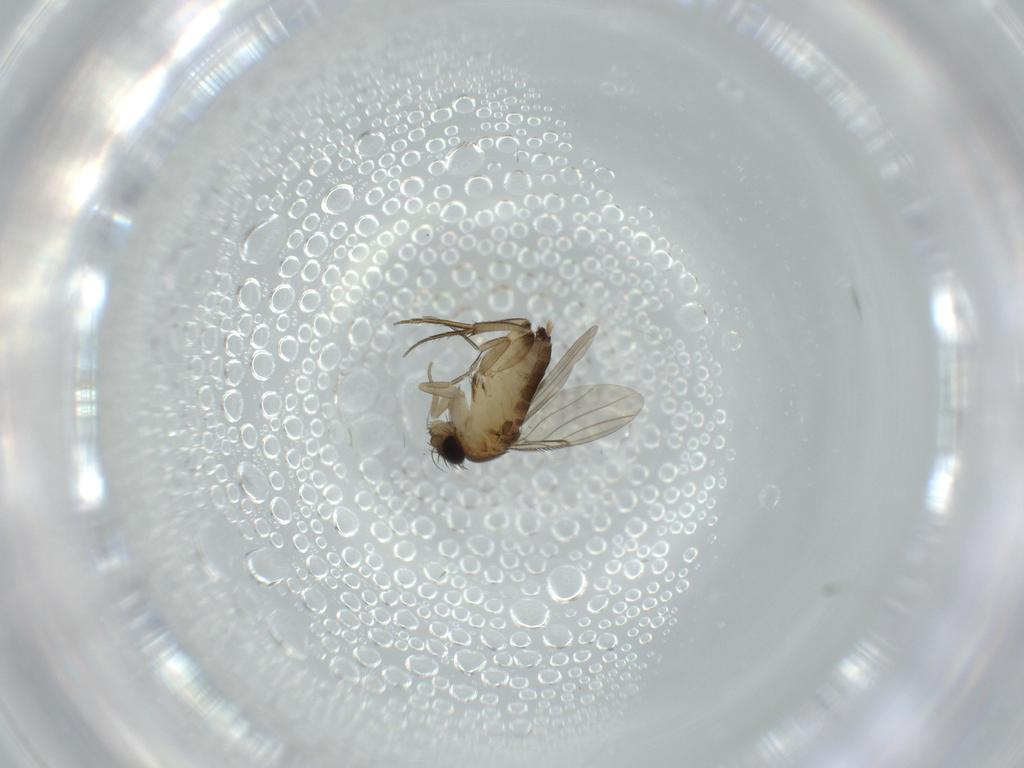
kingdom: Animalia
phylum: Arthropoda
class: Insecta
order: Diptera
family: Phoridae
